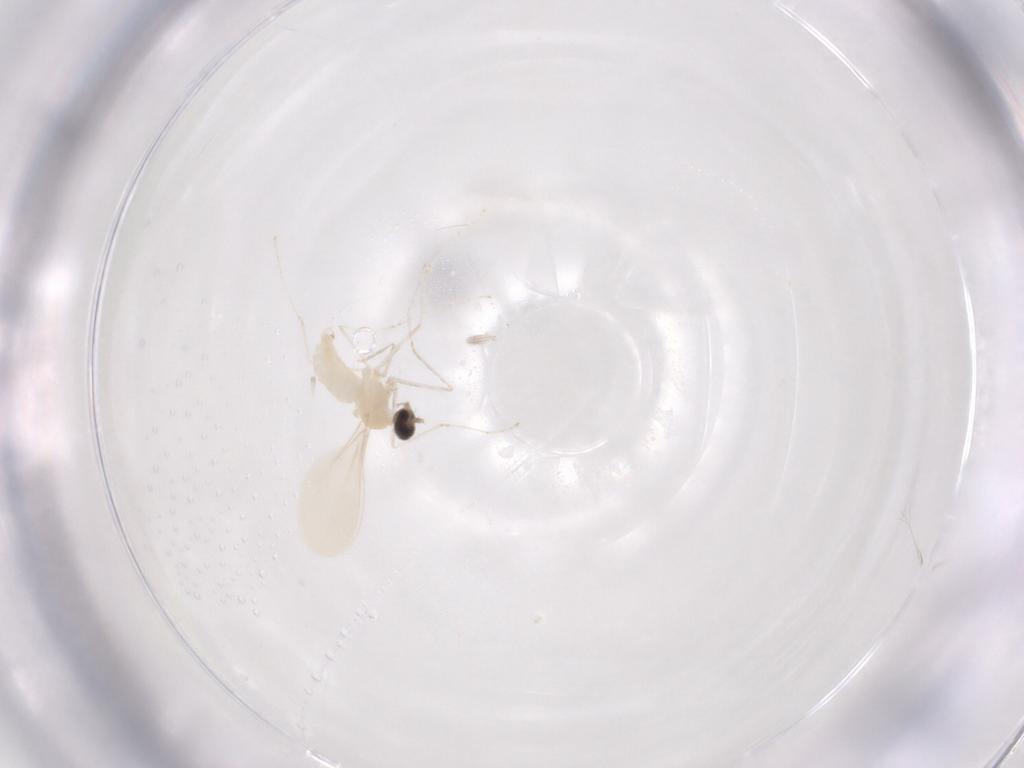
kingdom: Animalia
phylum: Arthropoda
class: Insecta
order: Diptera
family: Cecidomyiidae
